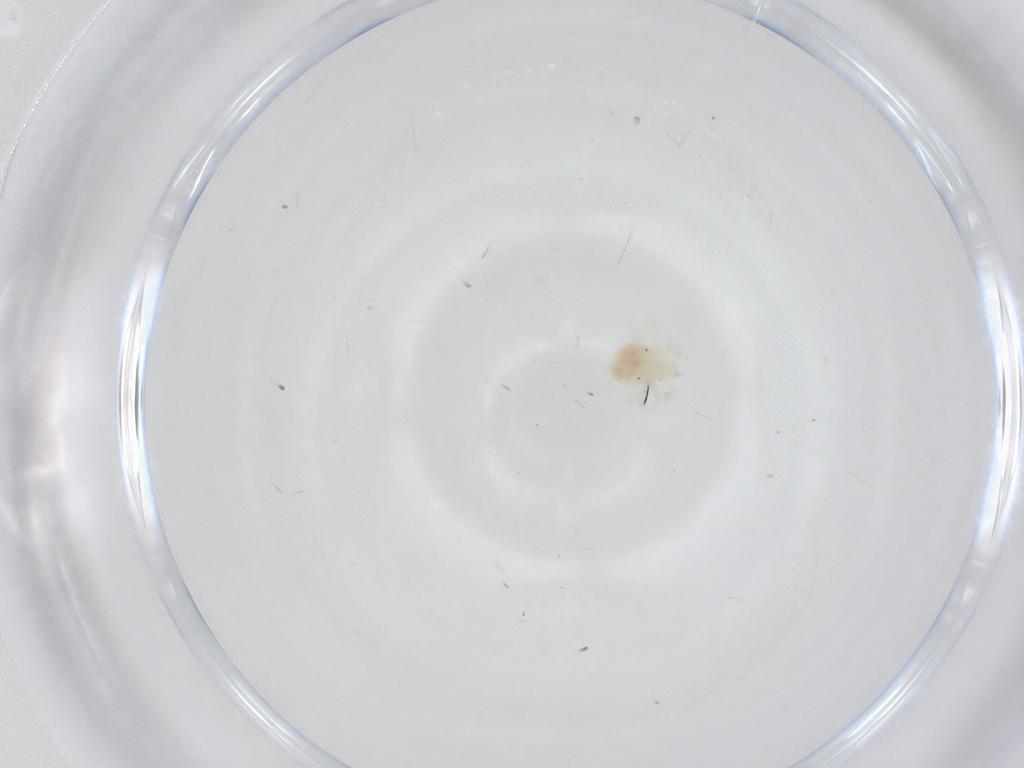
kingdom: Animalia
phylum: Arthropoda
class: Arachnida
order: Trombidiformes
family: Anystidae
